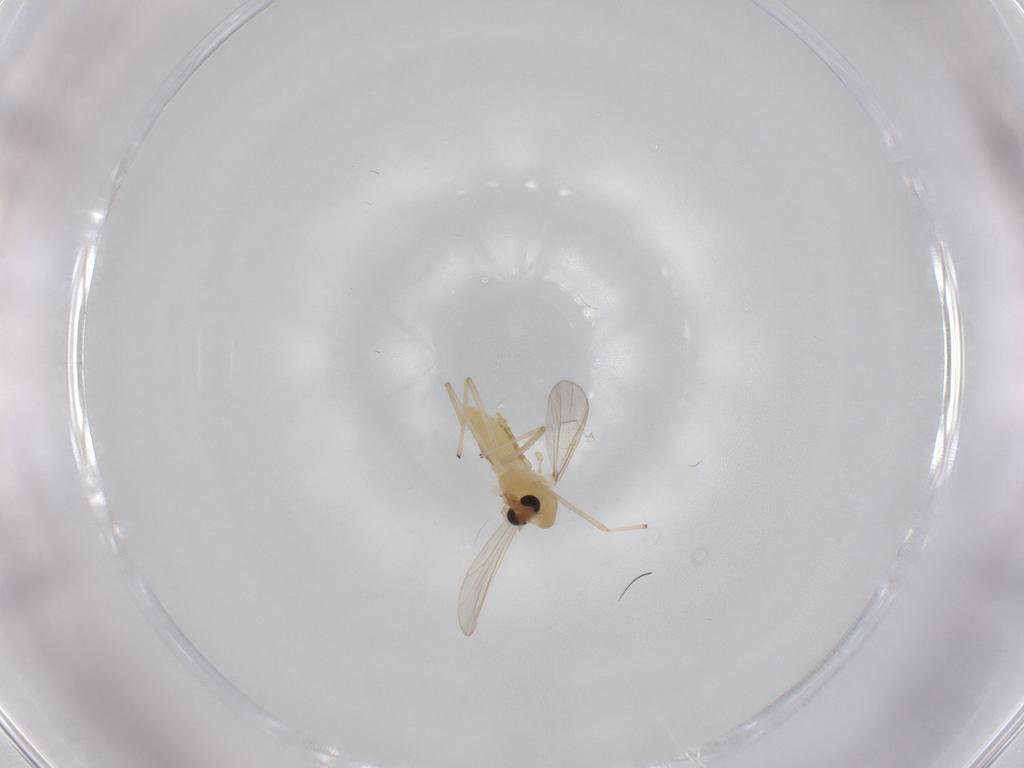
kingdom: Animalia
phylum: Arthropoda
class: Insecta
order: Diptera
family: Chironomidae
